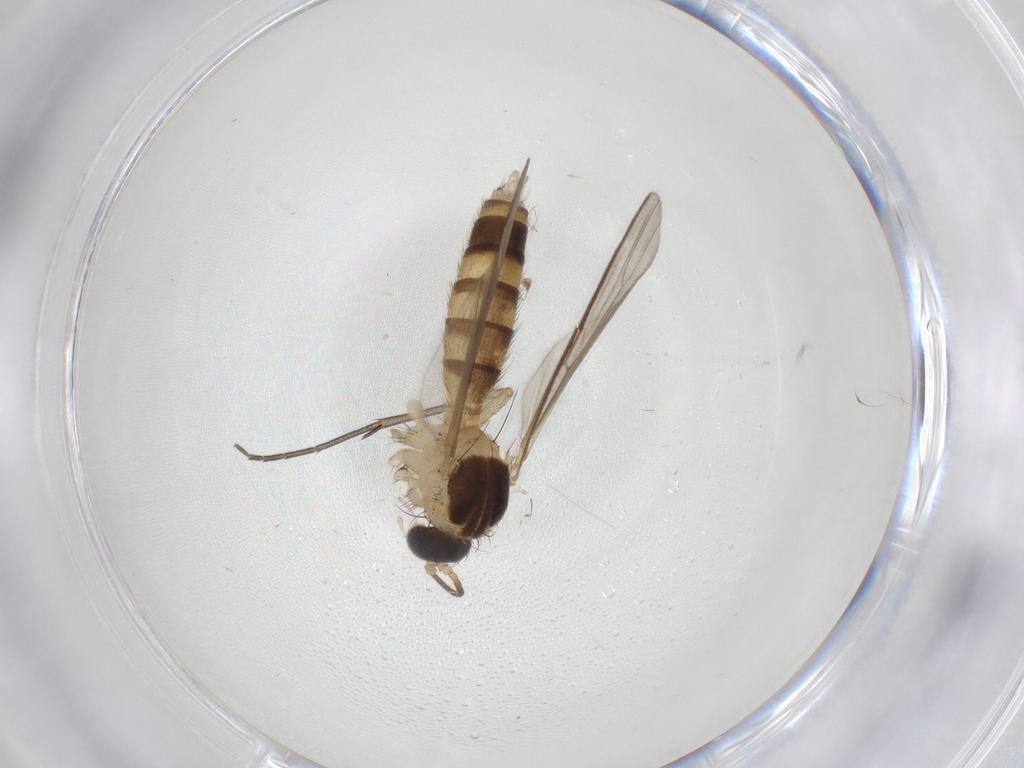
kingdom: Animalia
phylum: Arthropoda
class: Insecta
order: Diptera
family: Mycetophilidae
